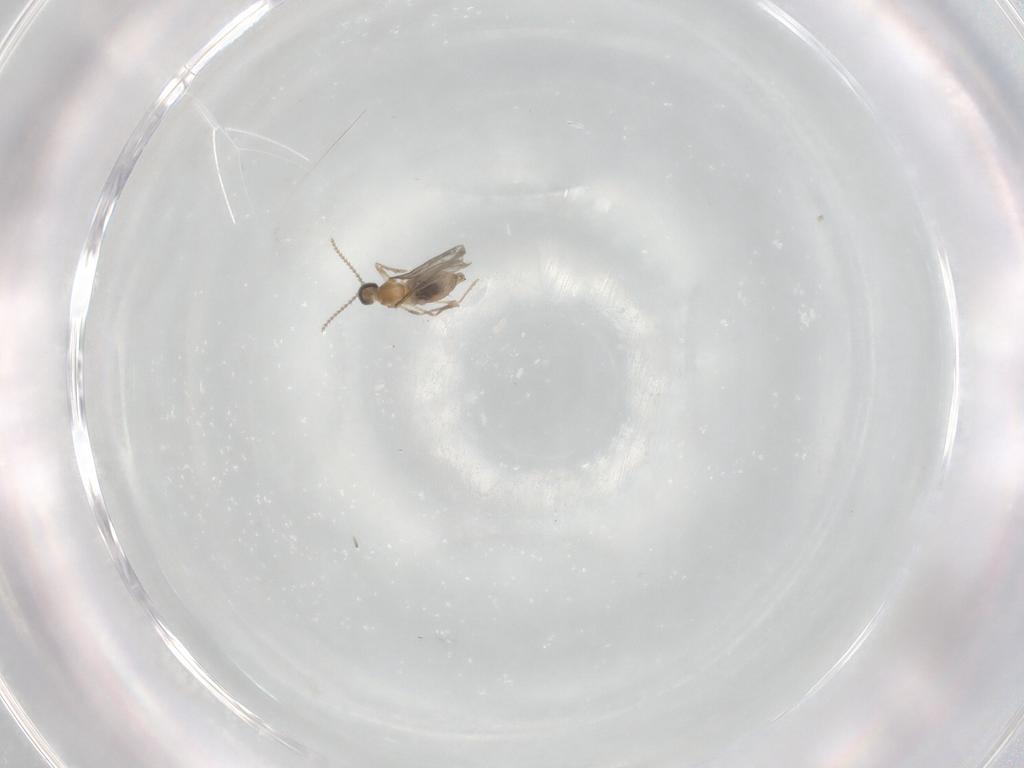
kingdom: Animalia
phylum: Arthropoda
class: Insecta
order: Diptera
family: Cecidomyiidae
